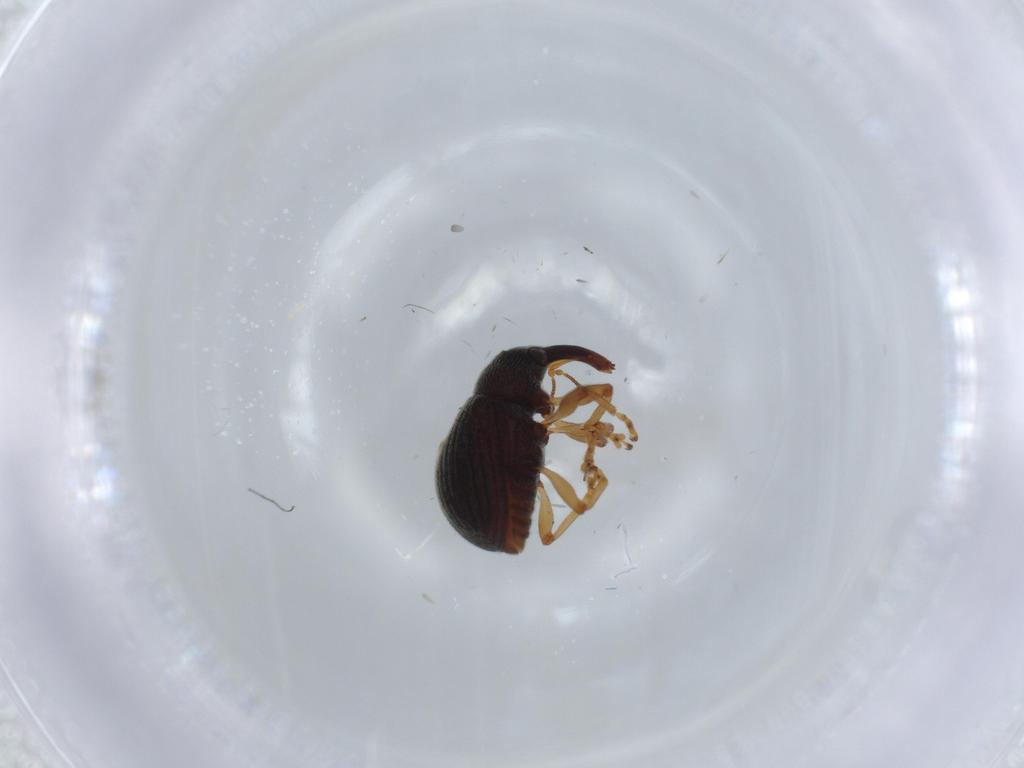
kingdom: Animalia
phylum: Arthropoda
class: Insecta
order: Coleoptera
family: Curculionidae
